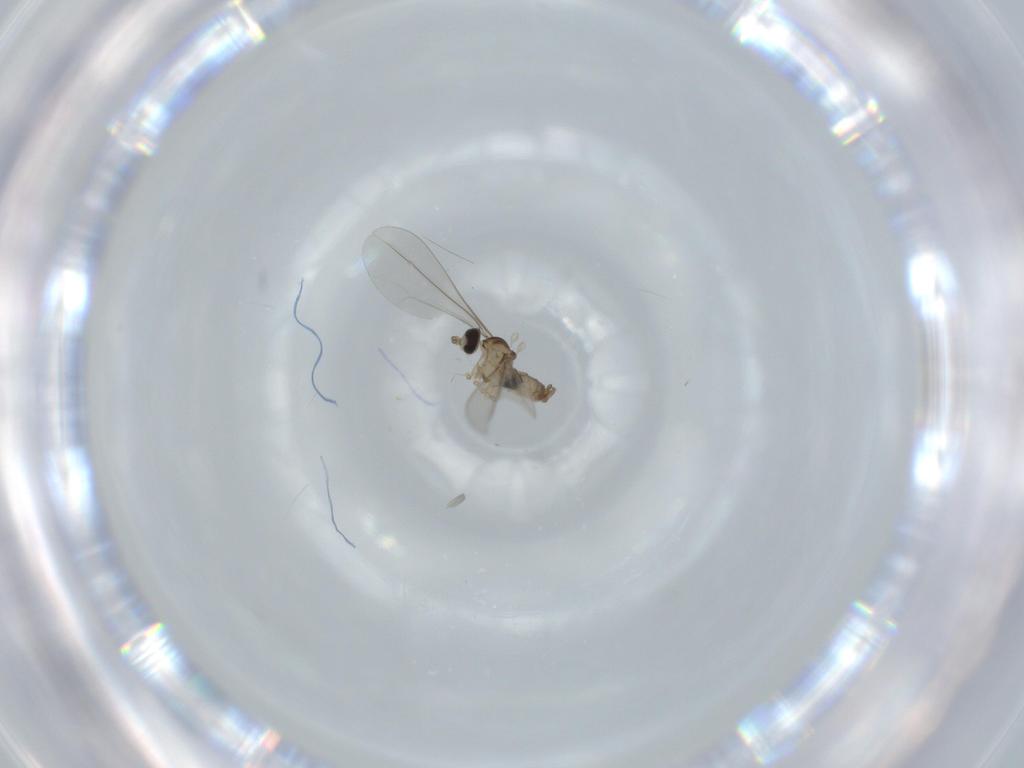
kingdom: Animalia
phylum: Arthropoda
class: Insecta
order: Diptera
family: Cecidomyiidae
